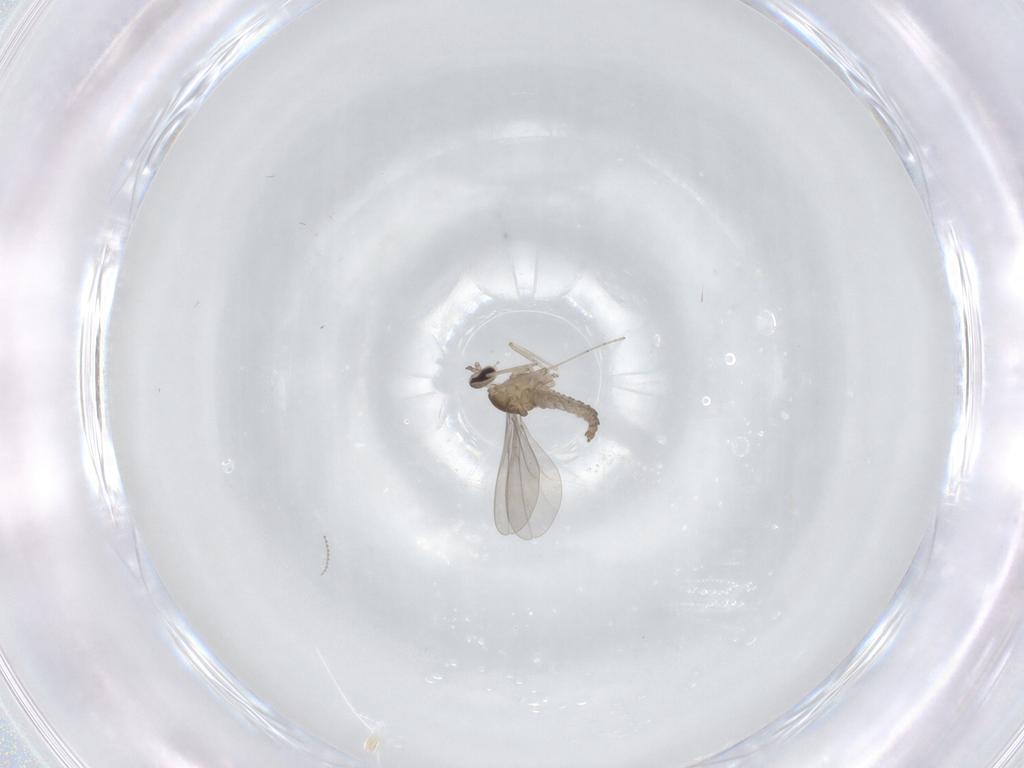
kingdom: Animalia
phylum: Arthropoda
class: Insecta
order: Diptera
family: Cecidomyiidae
